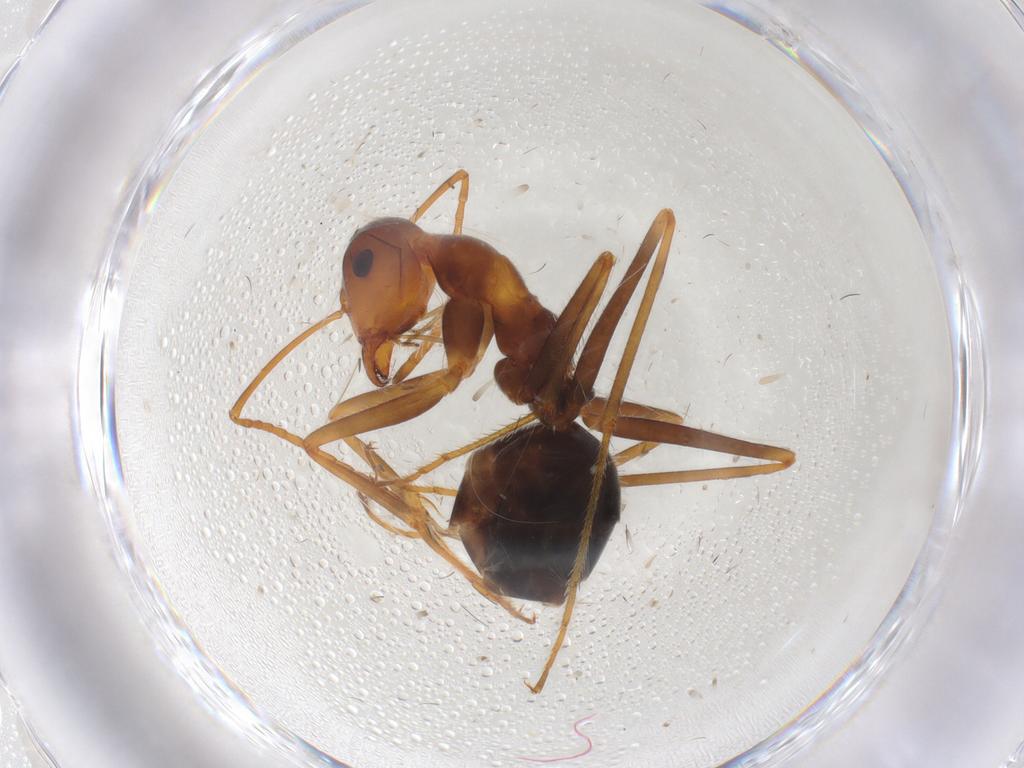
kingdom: Animalia
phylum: Arthropoda
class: Insecta
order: Hymenoptera
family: Formicidae
